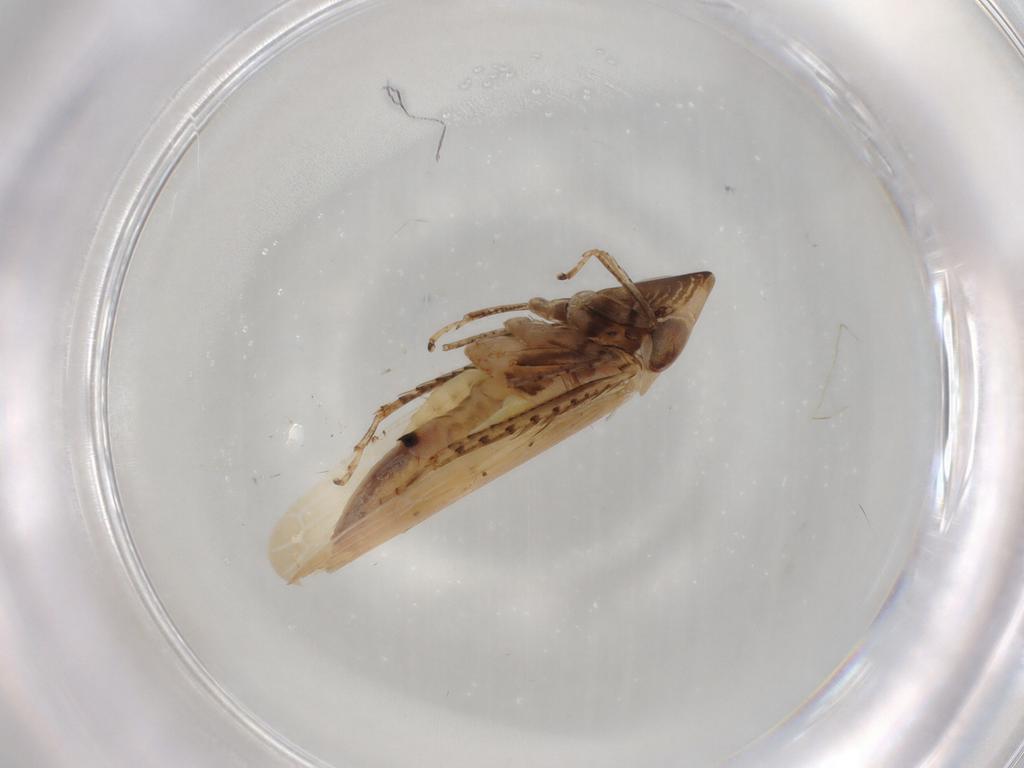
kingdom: Animalia
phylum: Arthropoda
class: Insecta
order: Hemiptera
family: Cicadellidae
